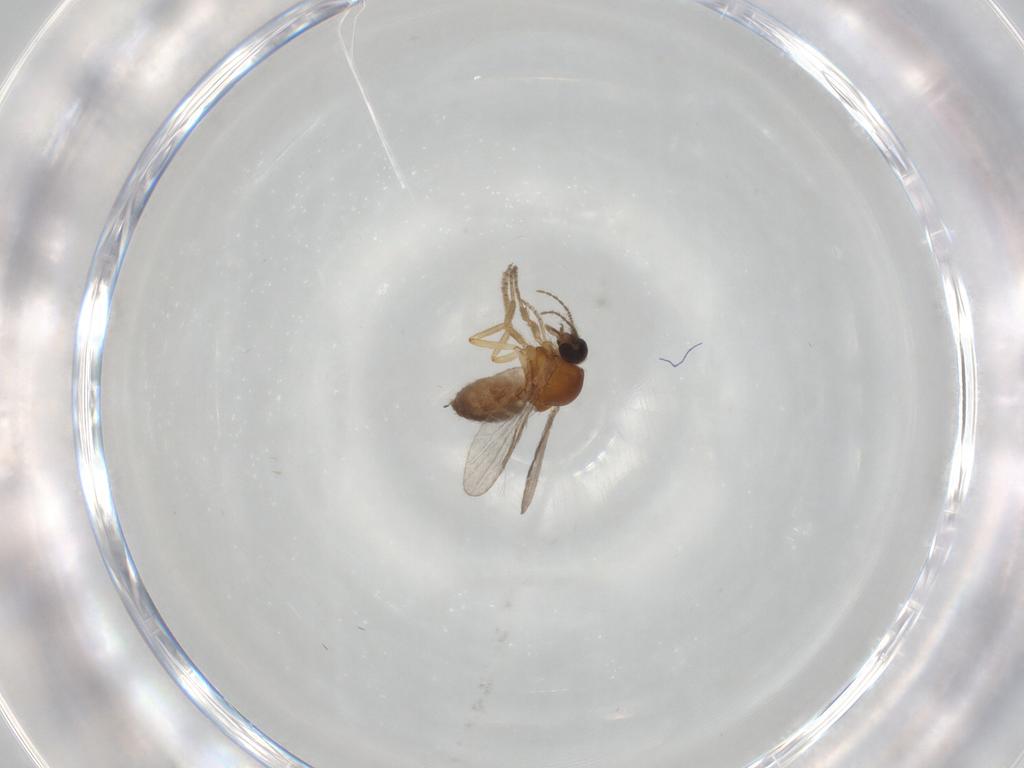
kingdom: Animalia
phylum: Arthropoda
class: Insecta
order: Diptera
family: Ceratopogonidae
